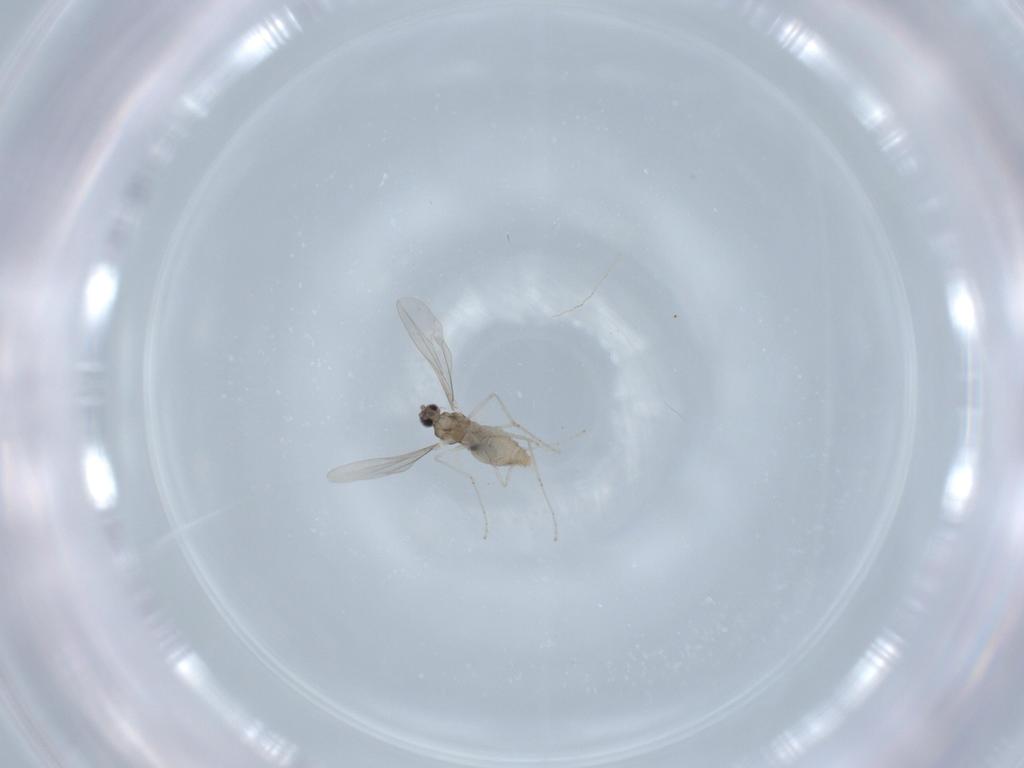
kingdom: Animalia
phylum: Arthropoda
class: Insecta
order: Diptera
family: Cecidomyiidae
